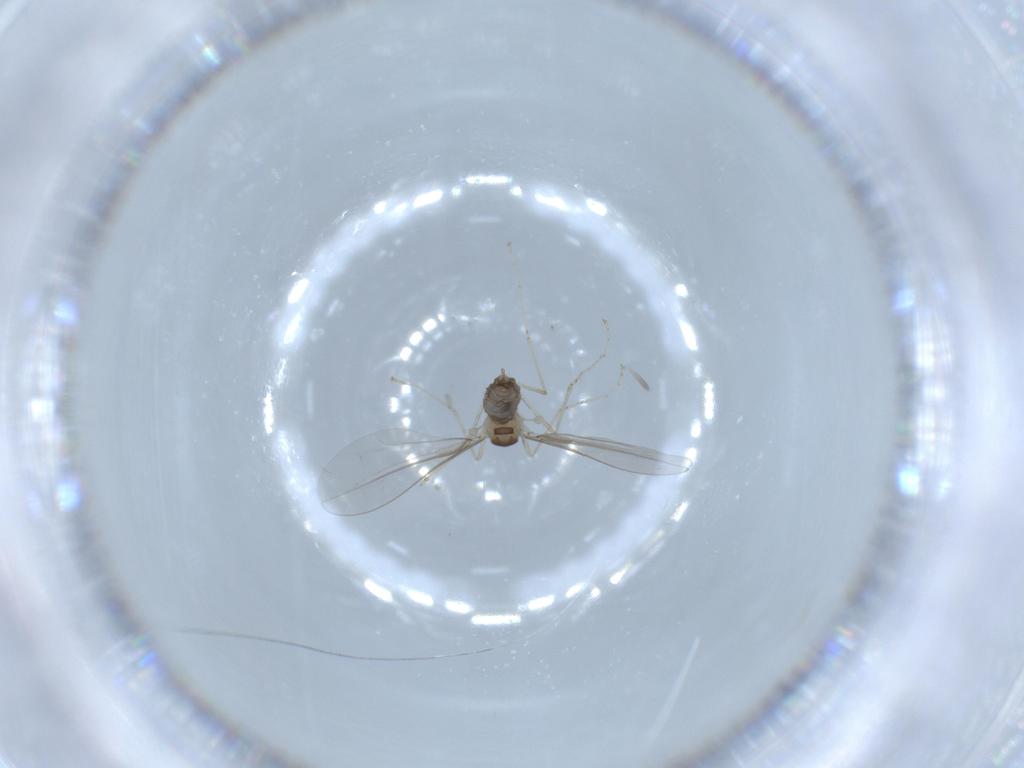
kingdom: Animalia
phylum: Arthropoda
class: Insecta
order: Diptera
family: Cecidomyiidae
